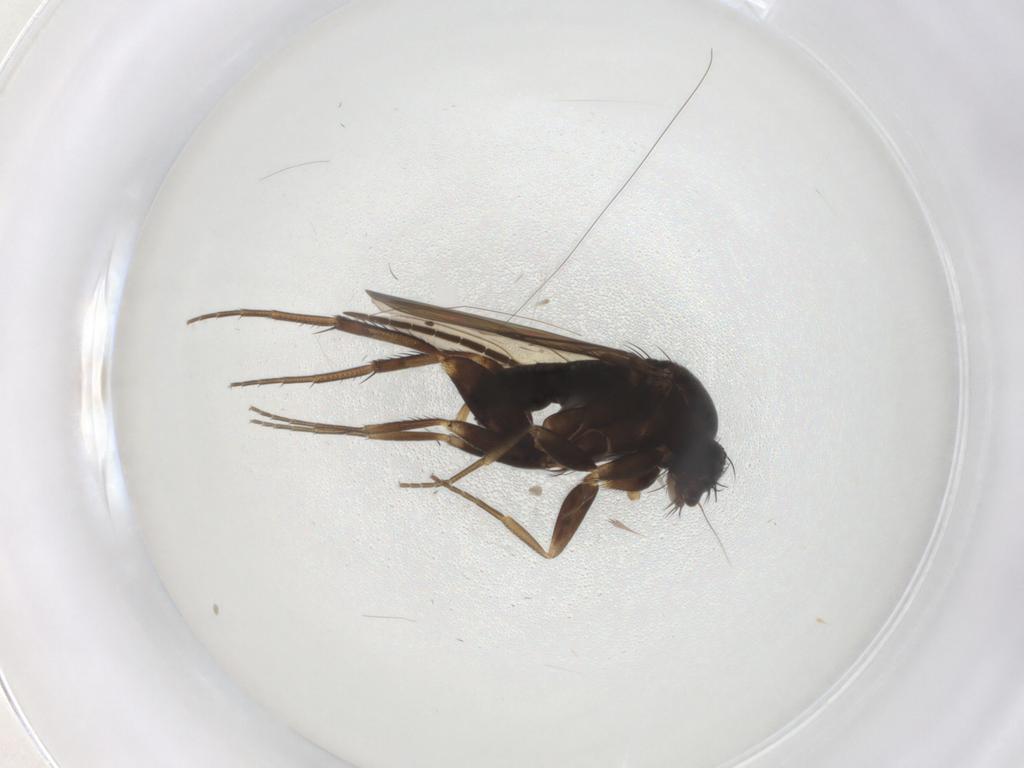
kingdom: Animalia
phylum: Arthropoda
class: Insecta
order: Diptera
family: Phoridae
